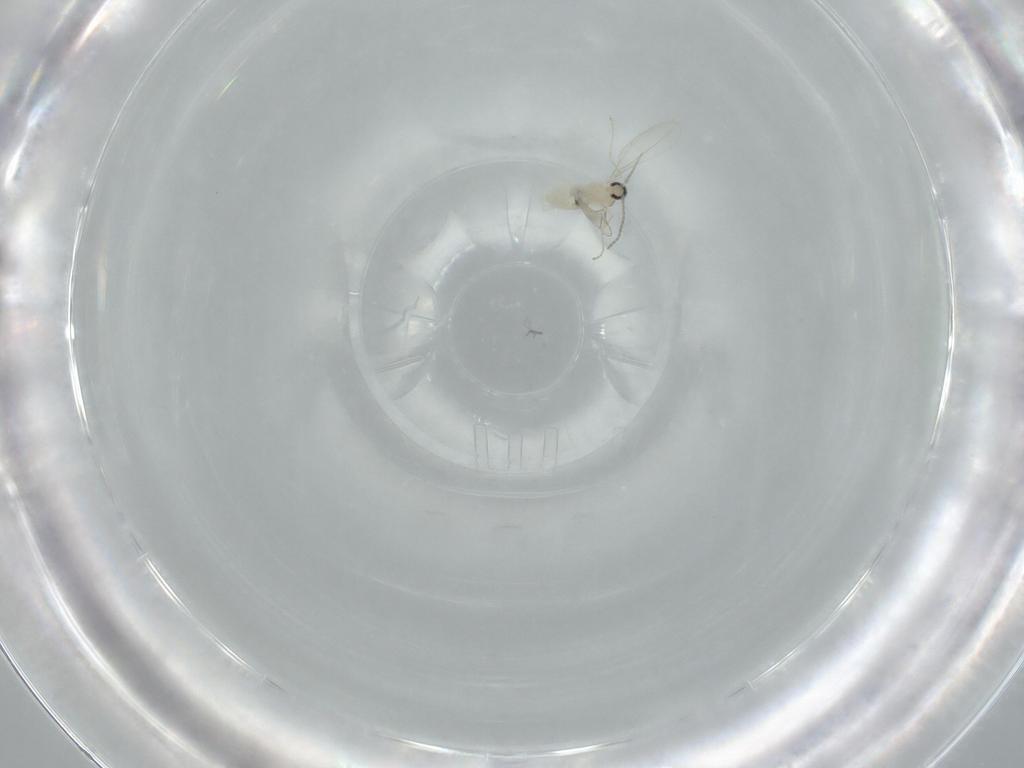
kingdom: Animalia
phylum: Arthropoda
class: Insecta
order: Diptera
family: Cecidomyiidae
